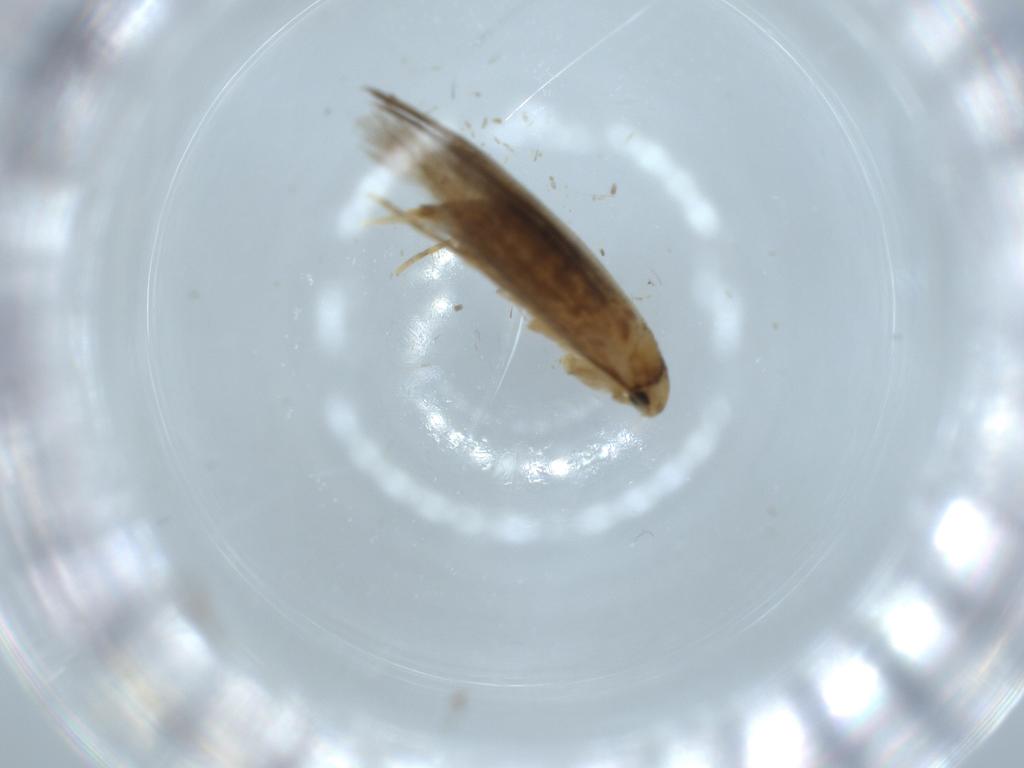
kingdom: Animalia
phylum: Arthropoda
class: Insecta
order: Lepidoptera
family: Tineidae
